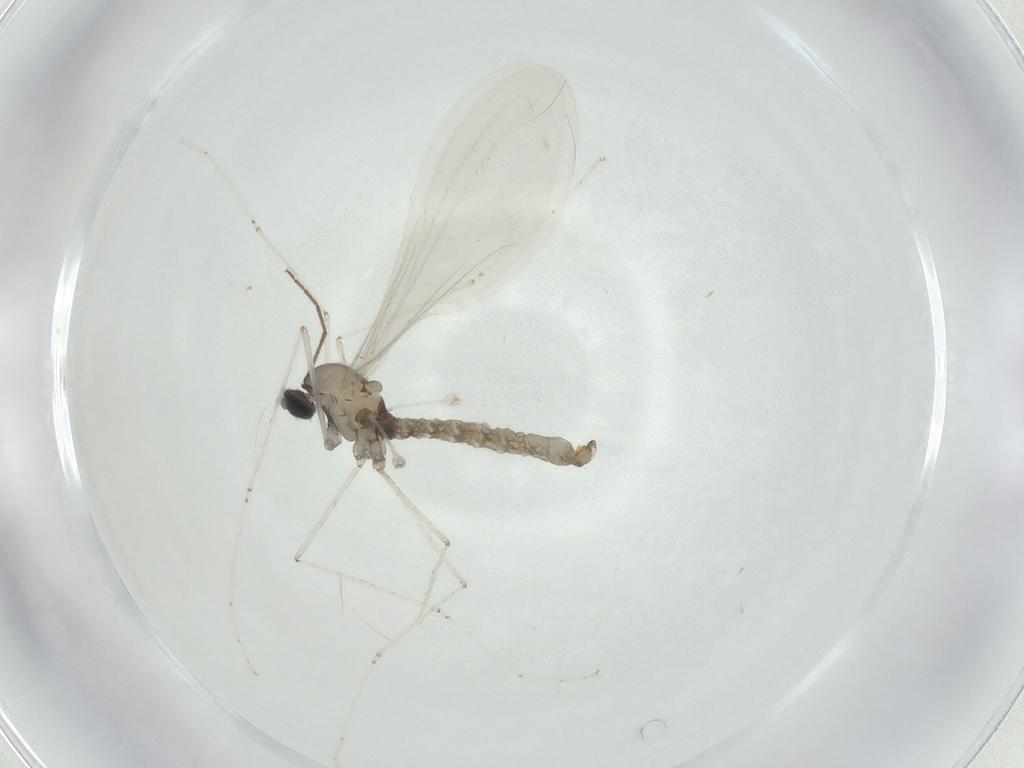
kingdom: Animalia
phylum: Arthropoda
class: Insecta
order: Diptera
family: Cecidomyiidae
